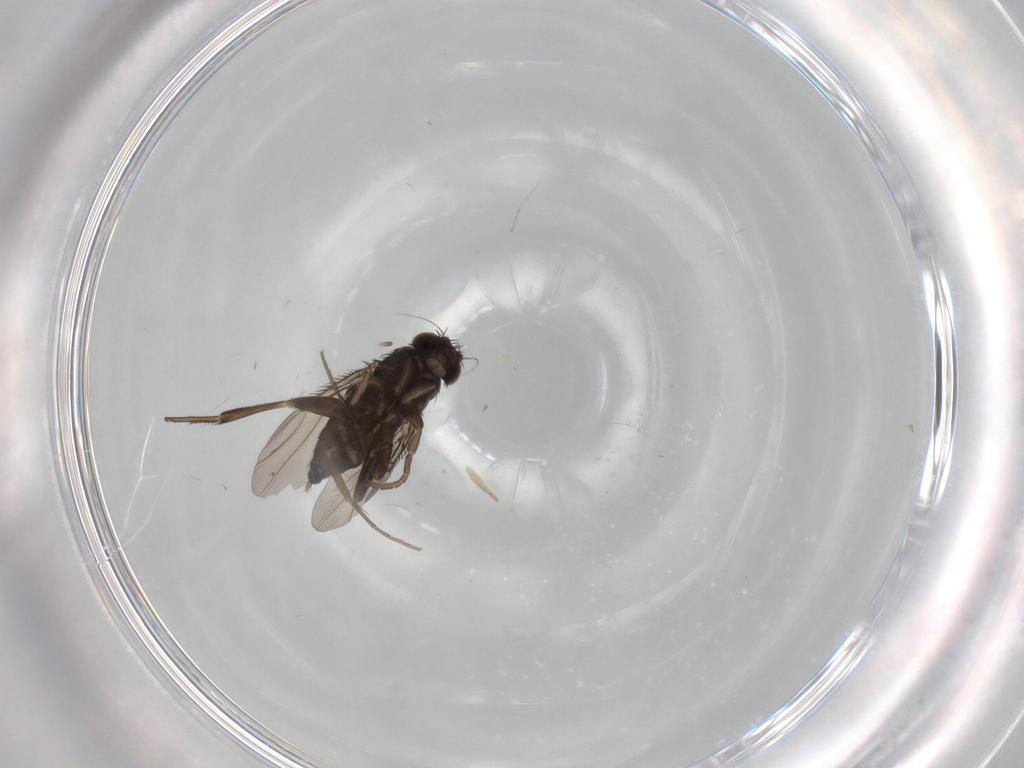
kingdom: Animalia
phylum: Arthropoda
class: Insecta
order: Diptera
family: Phoridae
